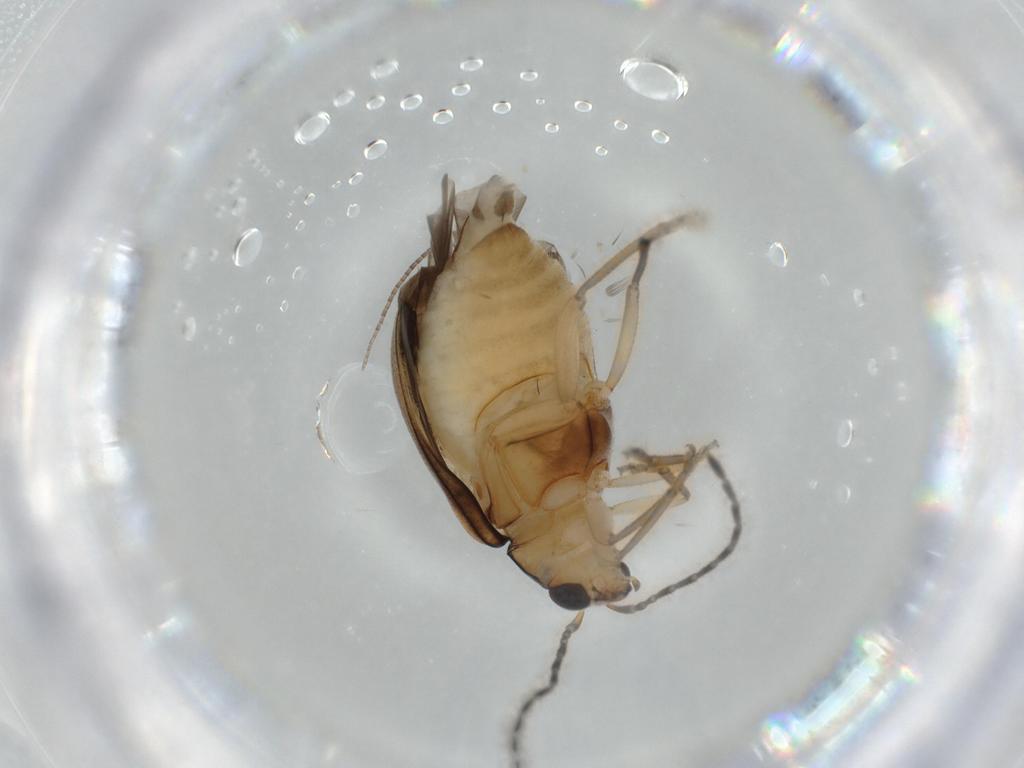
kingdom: Animalia
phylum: Arthropoda
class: Insecta
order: Coleoptera
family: Chrysomelidae
